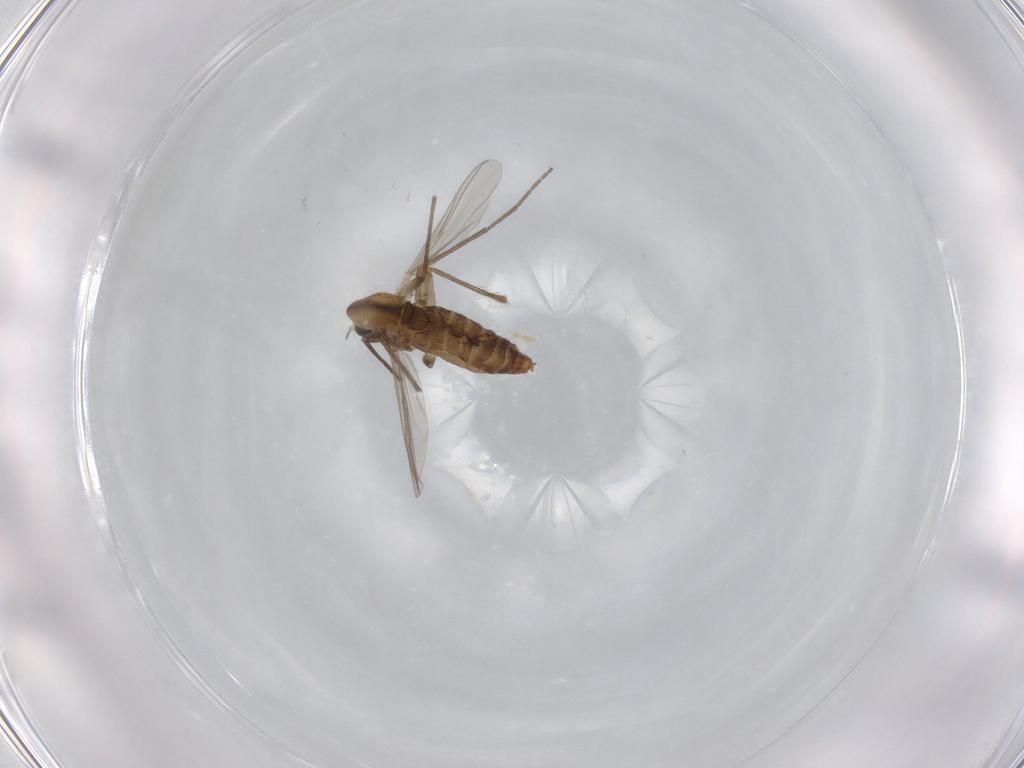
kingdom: Animalia
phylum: Arthropoda
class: Insecta
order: Diptera
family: Chironomidae
